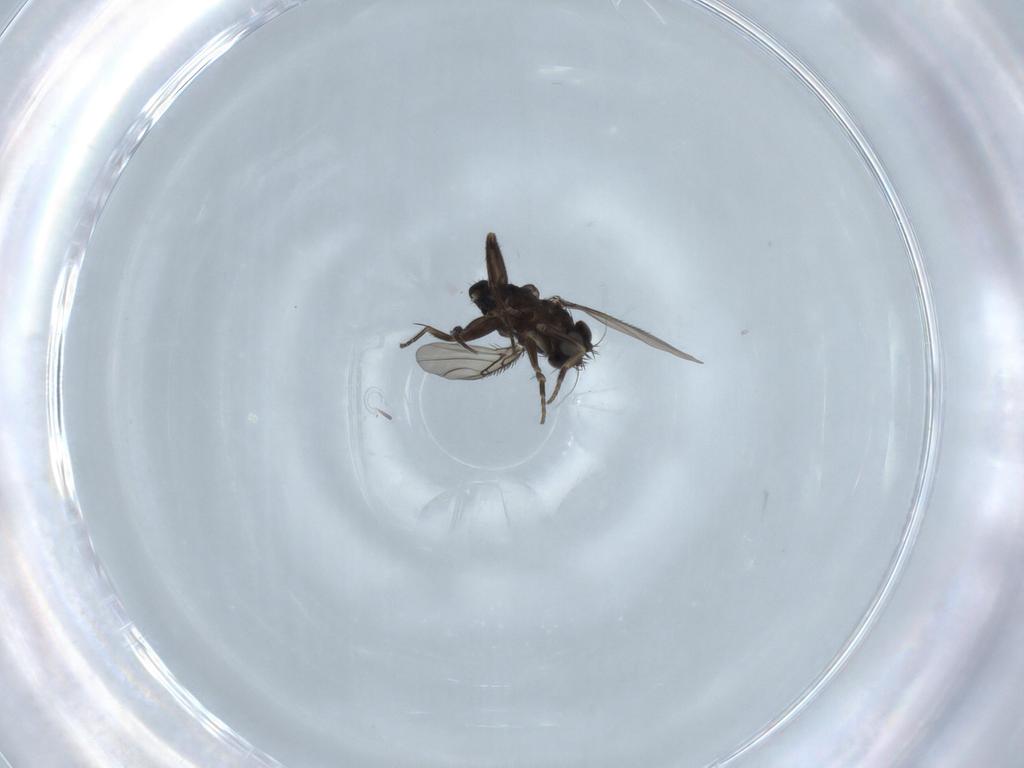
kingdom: Animalia
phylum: Arthropoda
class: Insecta
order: Diptera
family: Phoridae
